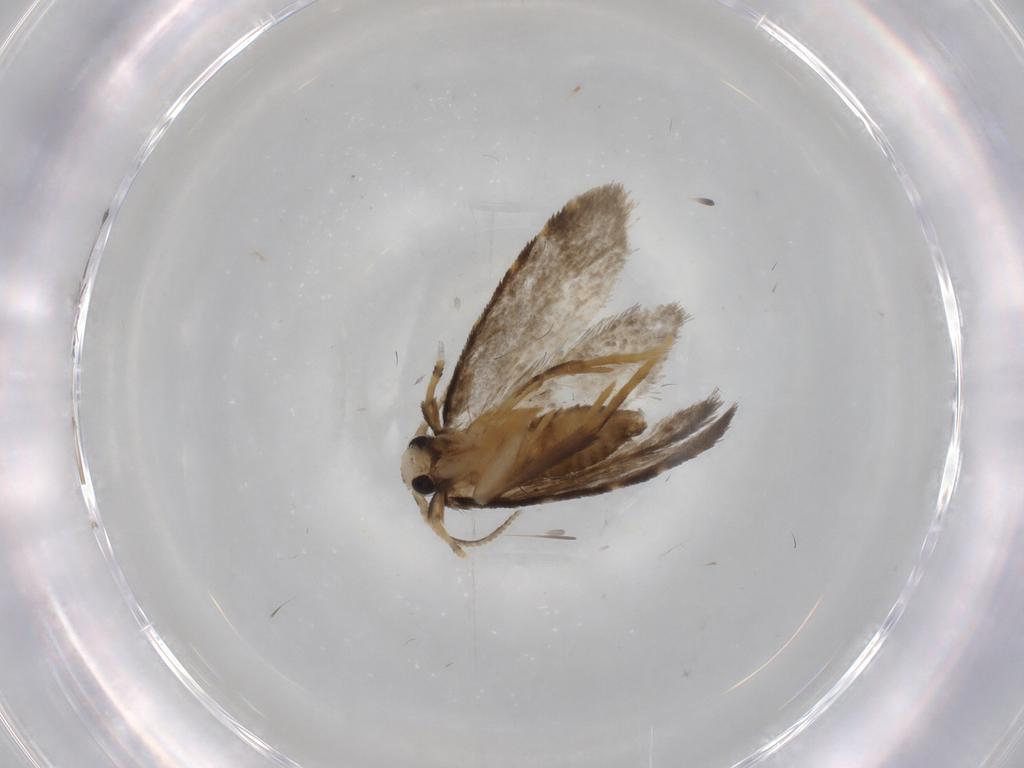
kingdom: Animalia
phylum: Arthropoda
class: Insecta
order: Lepidoptera
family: Psychidae
